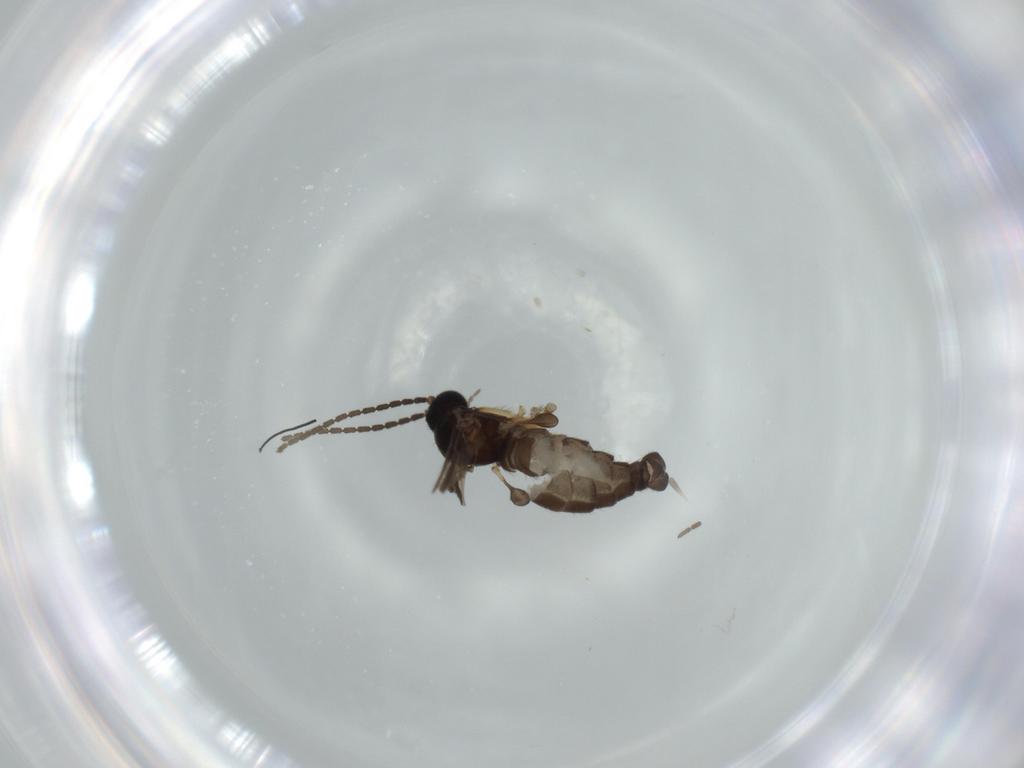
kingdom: Animalia
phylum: Arthropoda
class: Insecta
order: Diptera
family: Sciaridae
